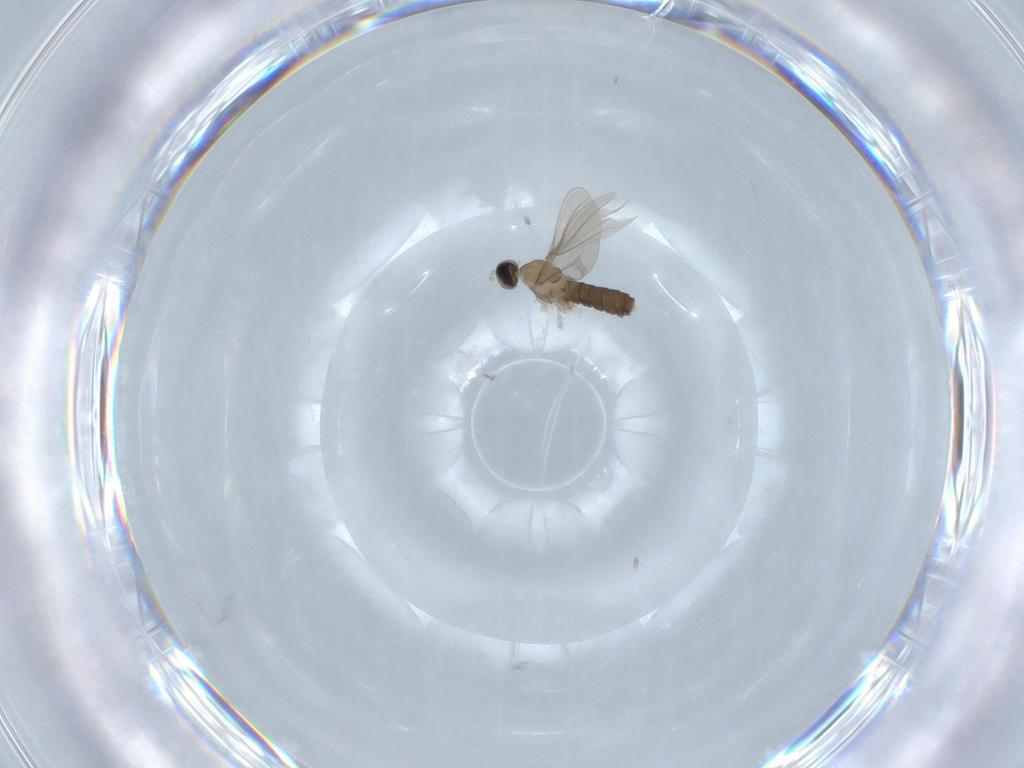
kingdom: Animalia
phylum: Arthropoda
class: Insecta
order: Diptera
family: Cecidomyiidae
